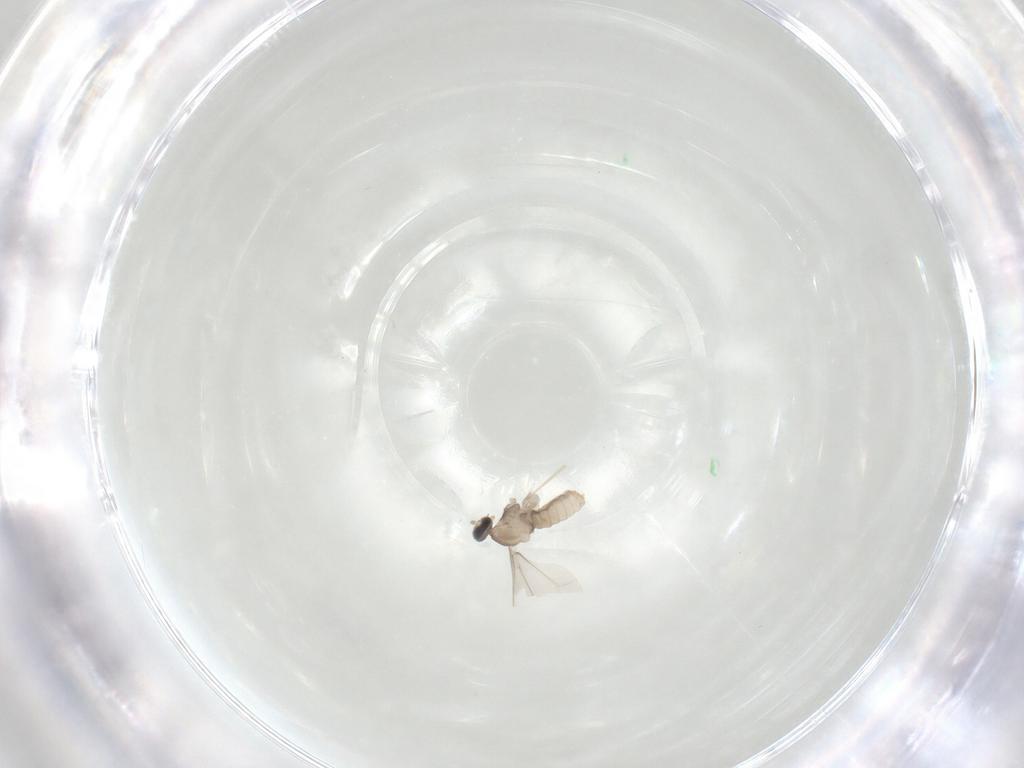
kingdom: Animalia
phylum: Arthropoda
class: Insecta
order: Diptera
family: Cecidomyiidae
